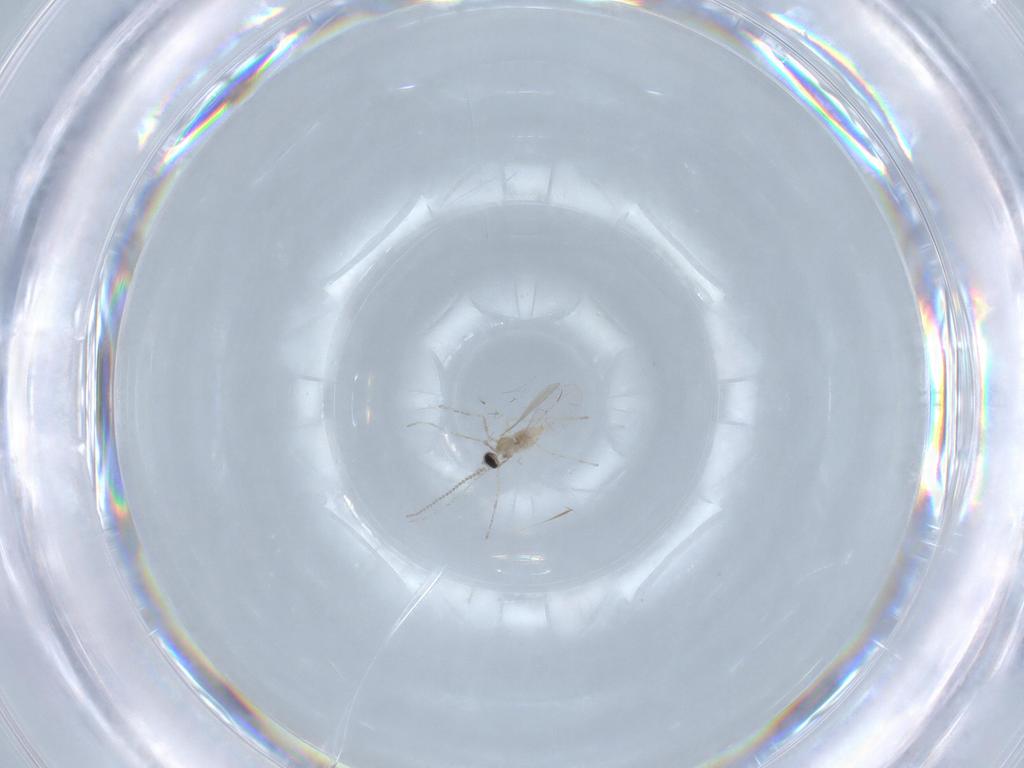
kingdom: Animalia
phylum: Arthropoda
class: Insecta
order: Diptera
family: Cecidomyiidae
